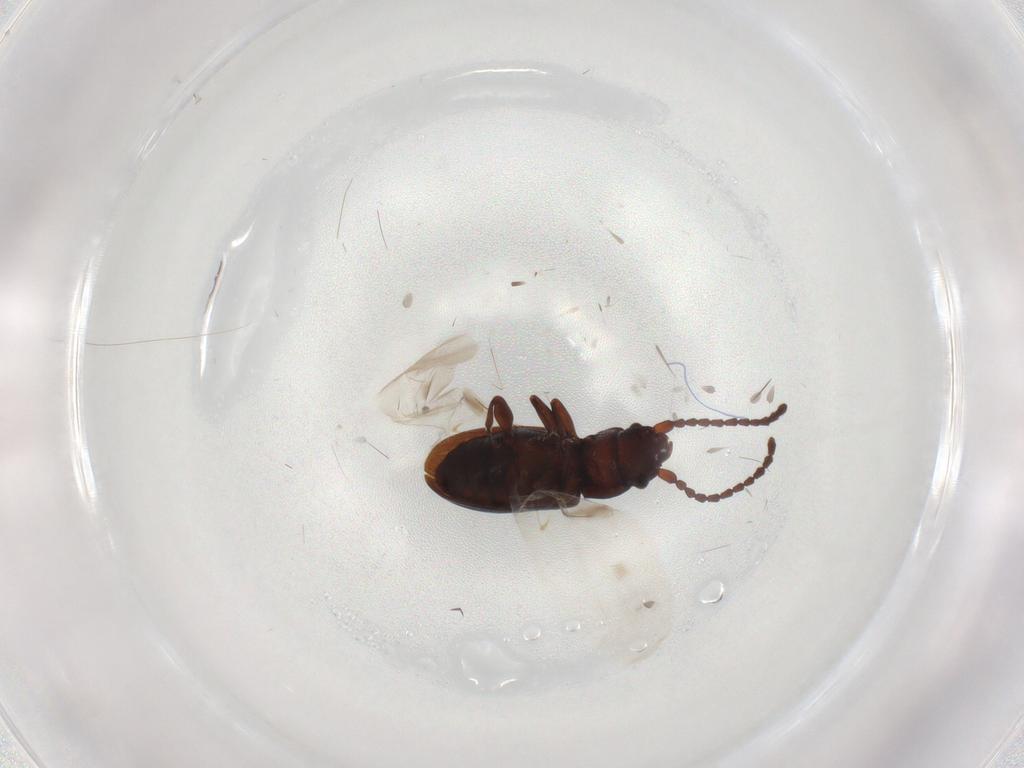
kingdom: Animalia
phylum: Arthropoda
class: Insecta
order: Coleoptera
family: Laemophloeidae
